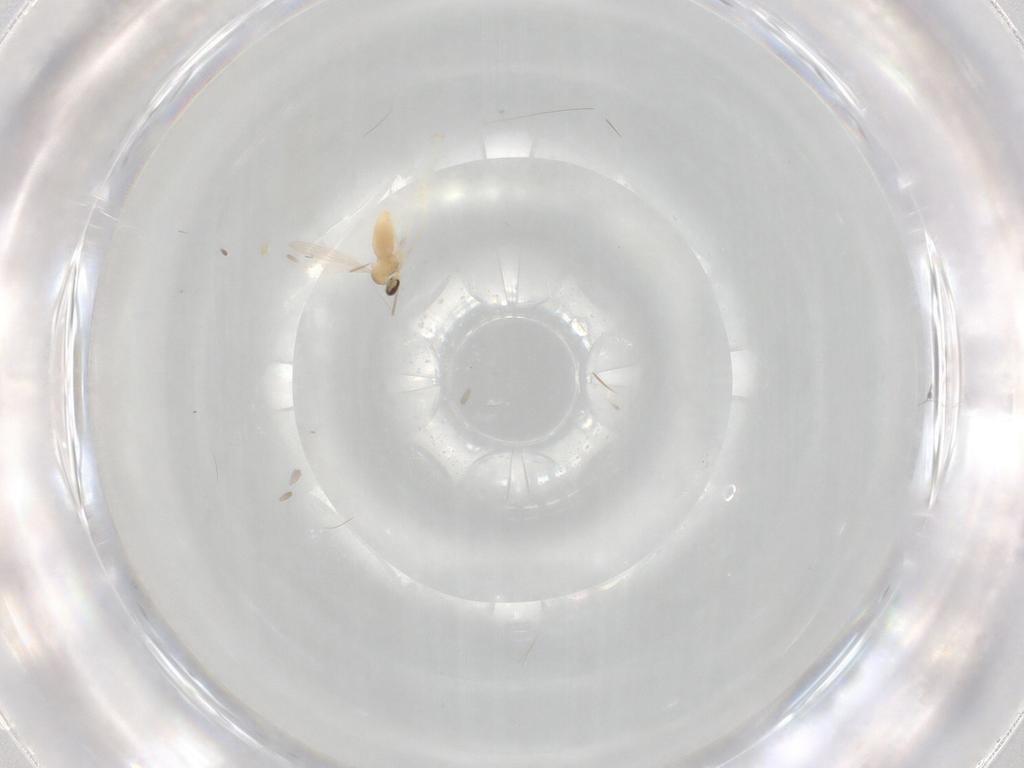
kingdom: Animalia
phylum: Arthropoda
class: Insecta
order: Diptera
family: Cecidomyiidae
